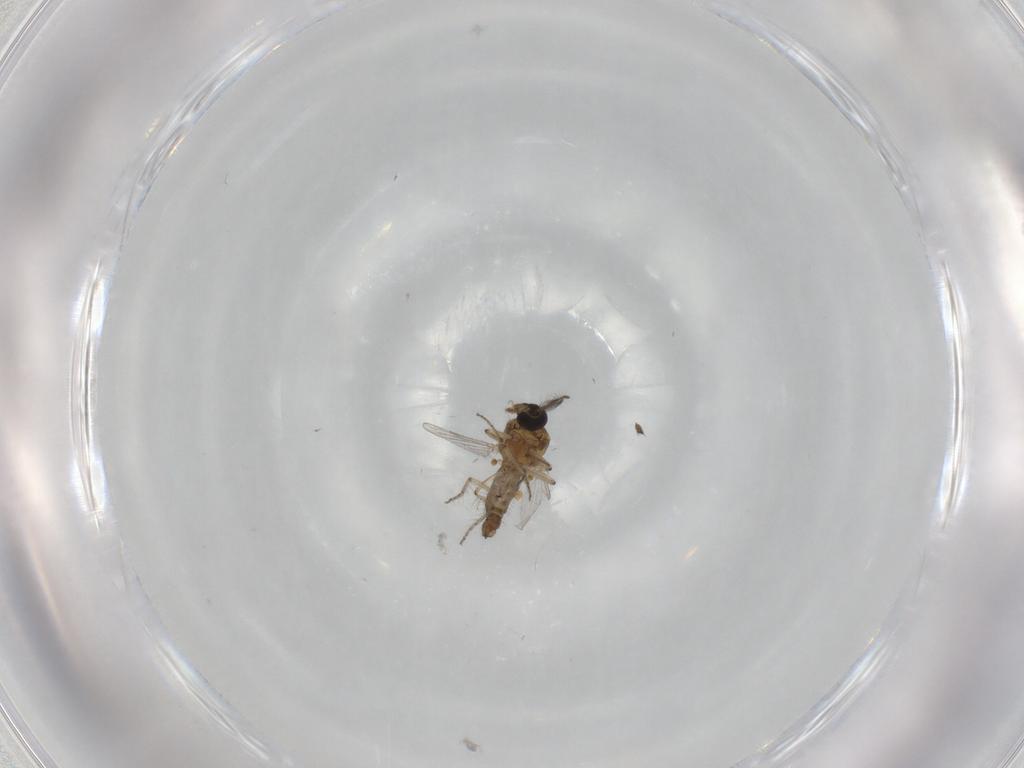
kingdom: Animalia
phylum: Arthropoda
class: Insecta
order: Diptera
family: Ceratopogonidae
